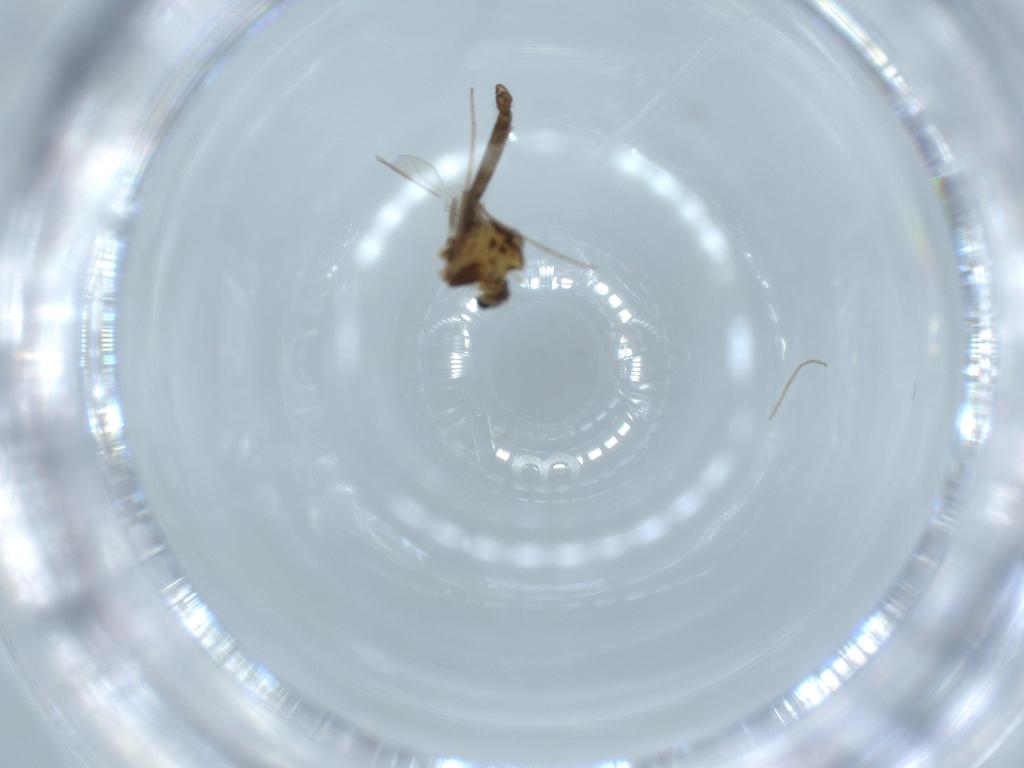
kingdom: Animalia
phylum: Arthropoda
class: Insecta
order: Diptera
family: Chironomidae
